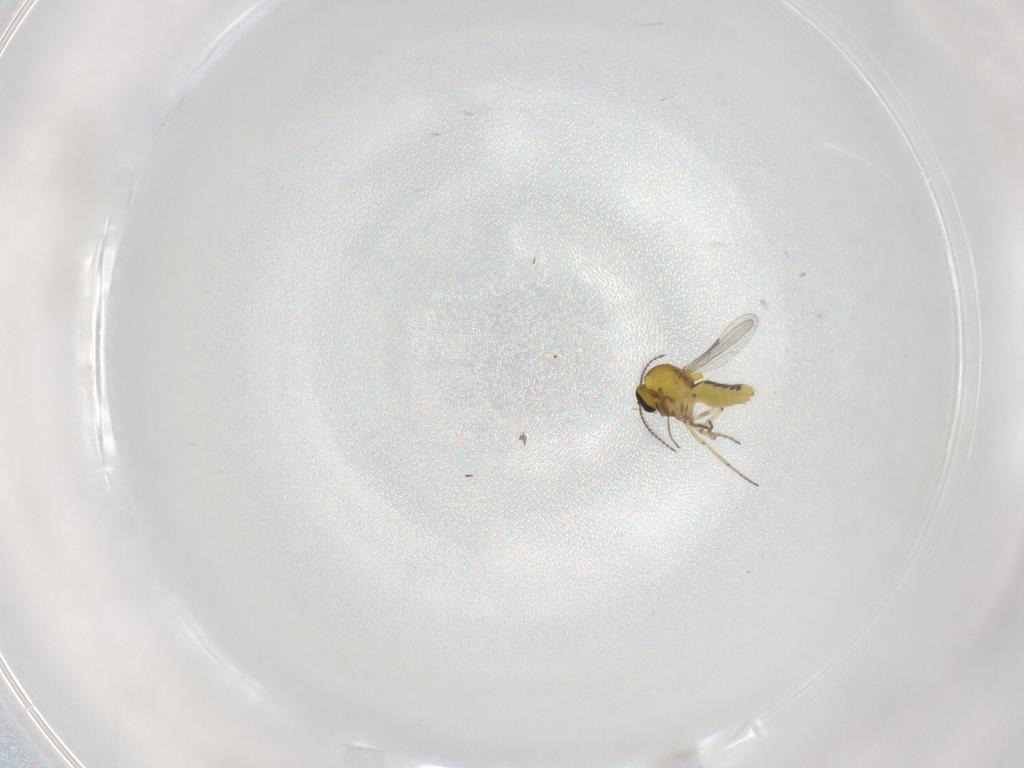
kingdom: Animalia
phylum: Arthropoda
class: Insecta
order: Diptera
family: Cecidomyiidae
